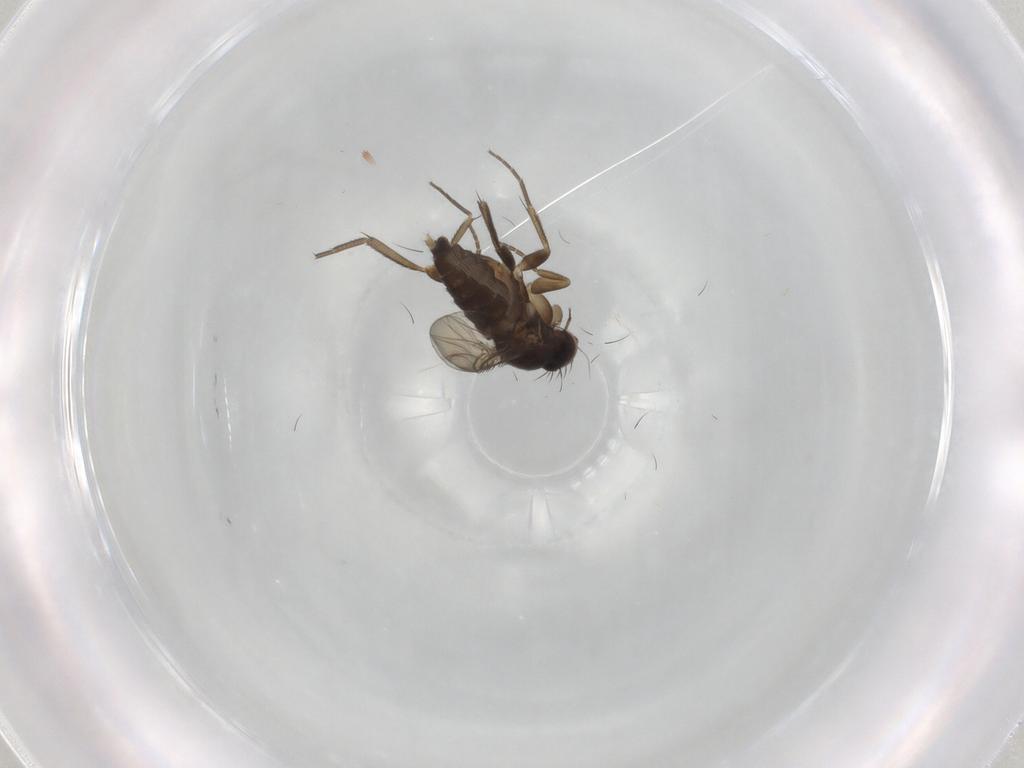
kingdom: Animalia
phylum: Arthropoda
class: Insecta
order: Diptera
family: Phoridae
